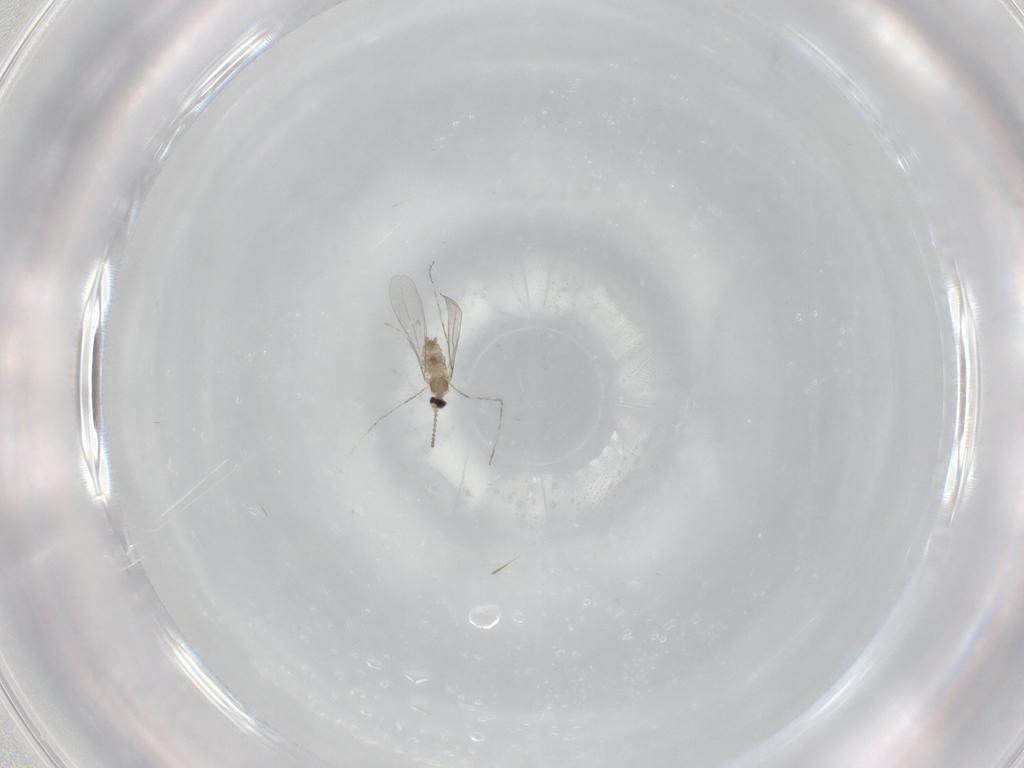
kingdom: Animalia
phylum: Arthropoda
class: Insecta
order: Diptera
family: Cecidomyiidae
